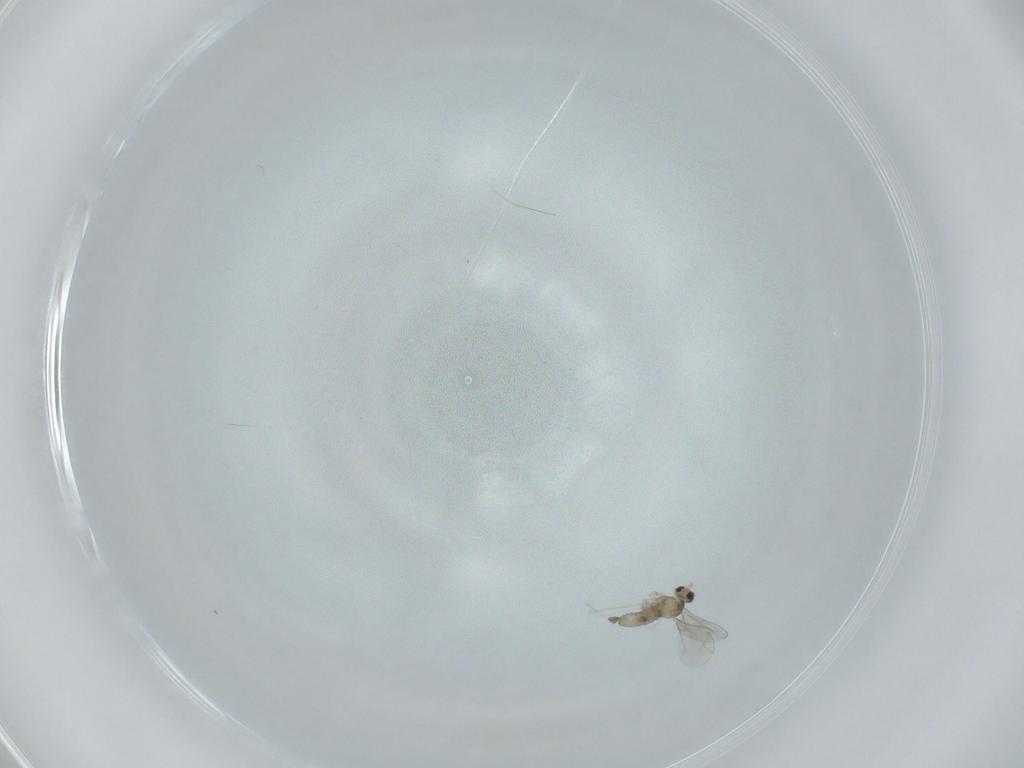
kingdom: Animalia
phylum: Arthropoda
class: Insecta
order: Diptera
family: Cecidomyiidae
